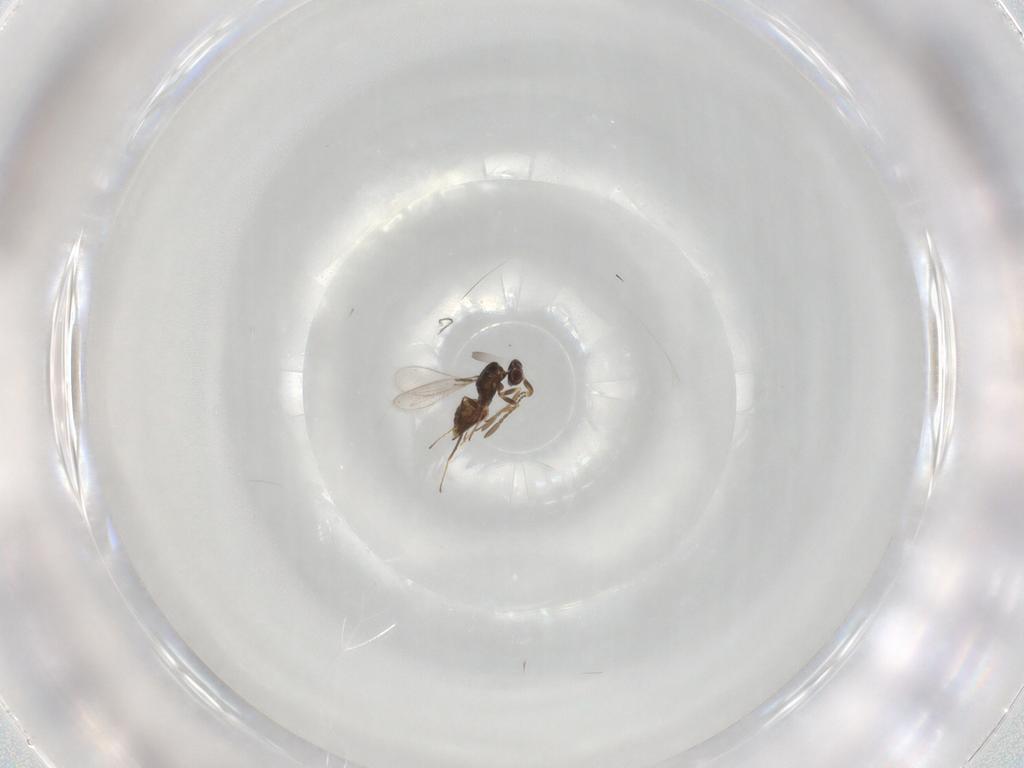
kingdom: Animalia
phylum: Arthropoda
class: Insecta
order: Hymenoptera
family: Mymaridae
